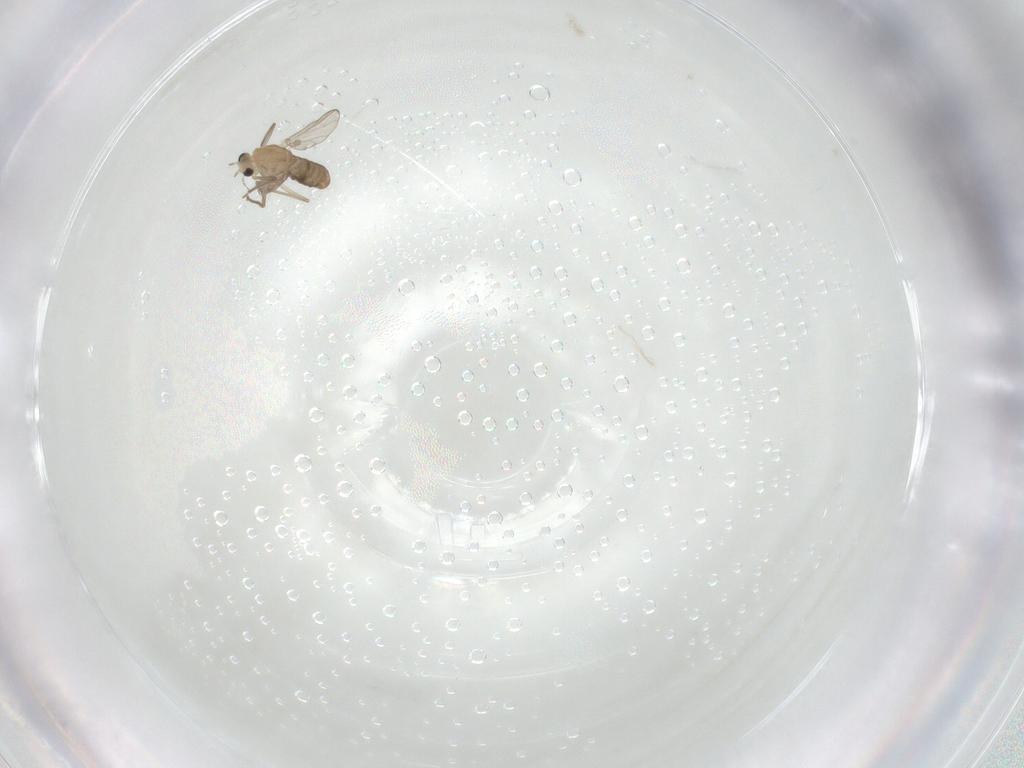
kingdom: Animalia
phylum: Arthropoda
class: Insecta
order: Diptera
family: Chironomidae
